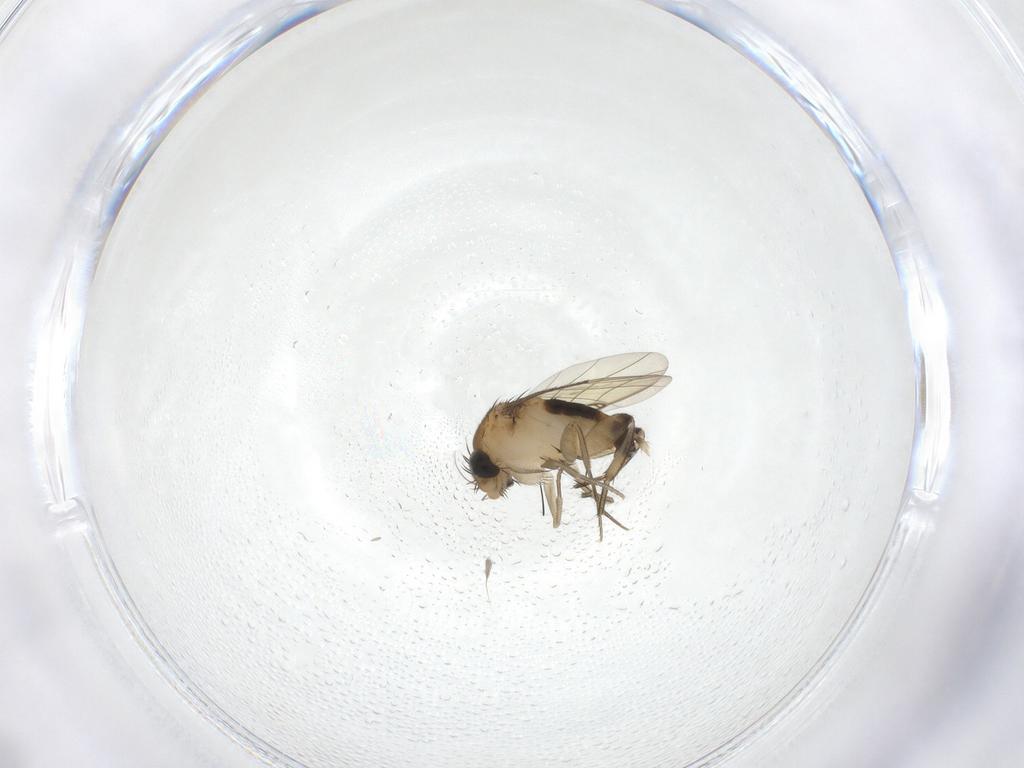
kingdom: Animalia
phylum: Arthropoda
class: Insecta
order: Diptera
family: Phoridae
